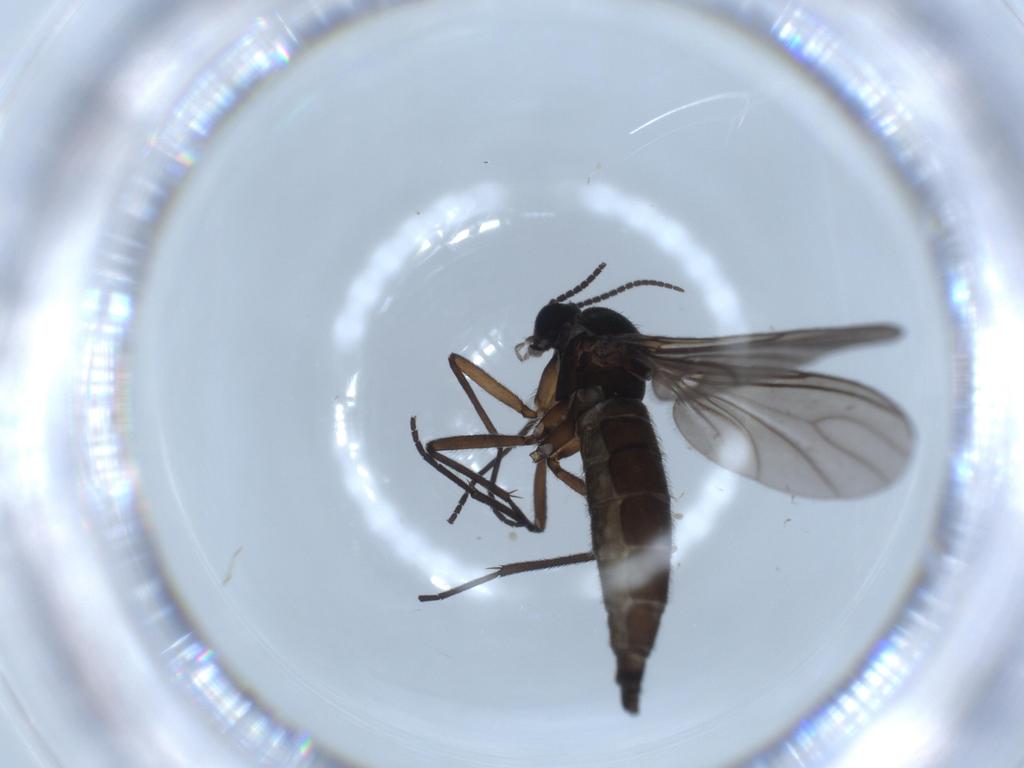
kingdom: Animalia
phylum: Arthropoda
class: Insecta
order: Diptera
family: Sciaridae
